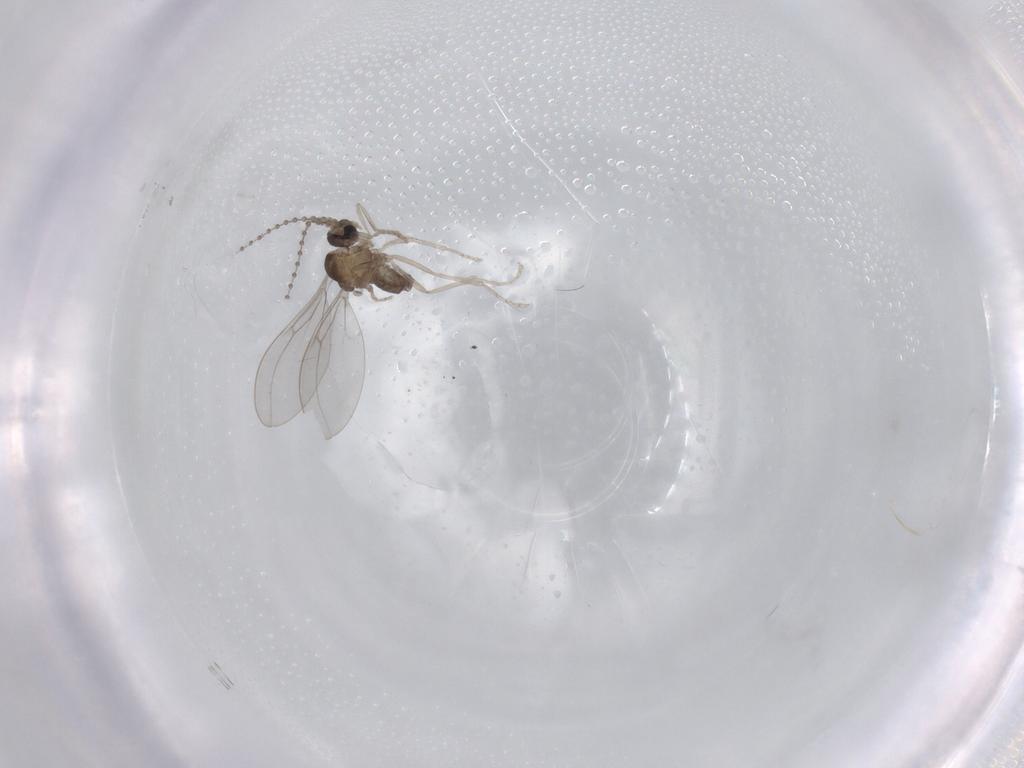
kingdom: Animalia
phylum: Arthropoda
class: Insecta
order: Diptera
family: Cecidomyiidae
